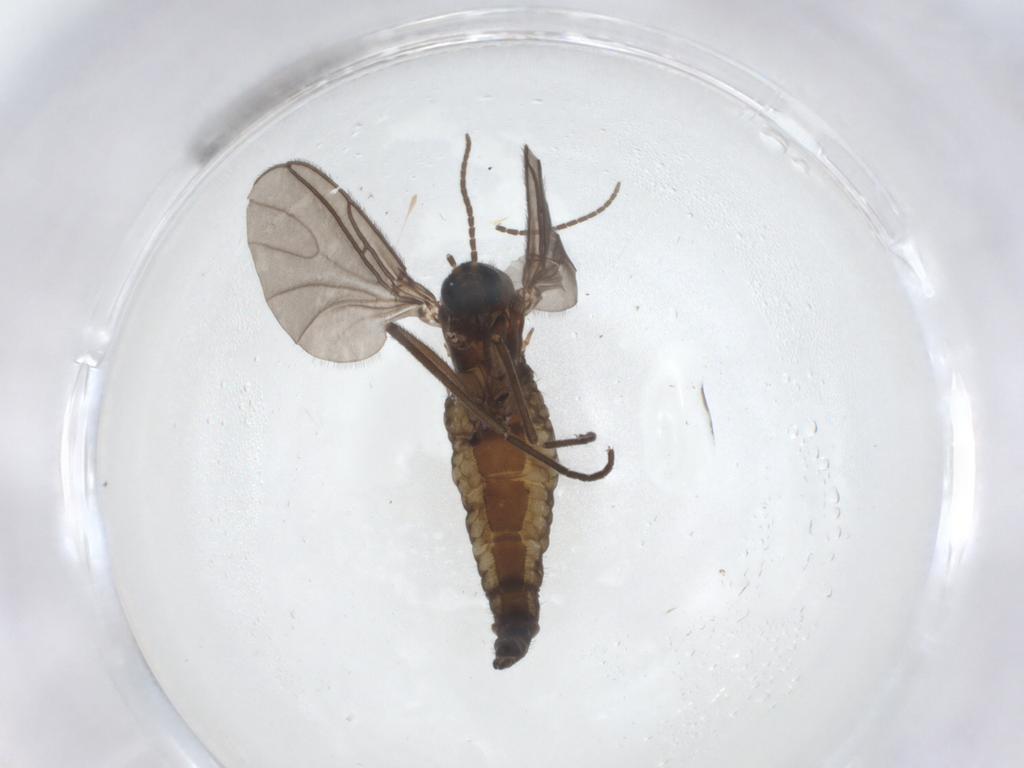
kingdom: Animalia
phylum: Arthropoda
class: Insecta
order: Diptera
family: Sciaridae
